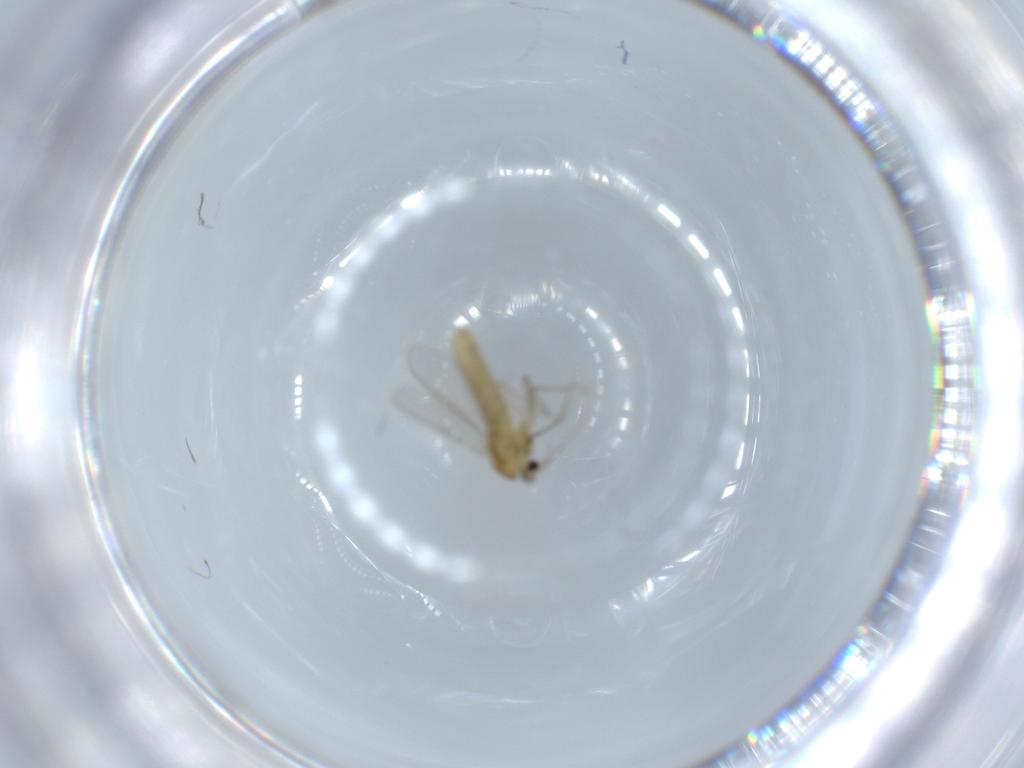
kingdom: Animalia
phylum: Arthropoda
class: Insecta
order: Diptera
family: Chironomidae
